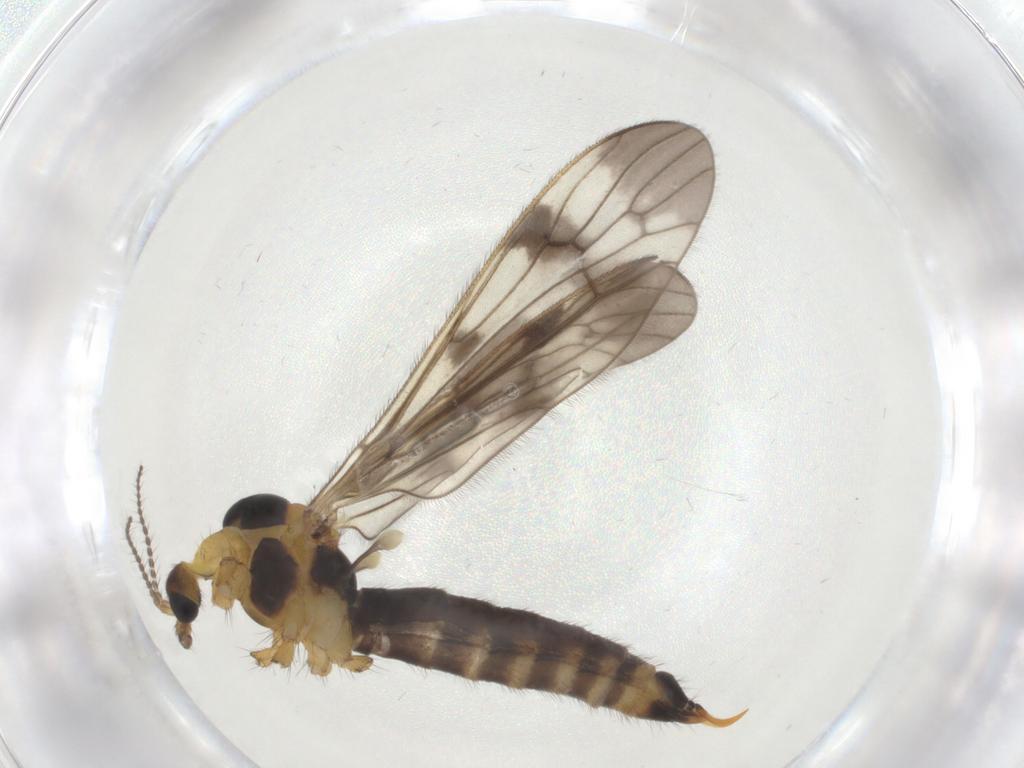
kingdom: Animalia
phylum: Arthropoda
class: Insecta
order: Diptera
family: Limoniidae
